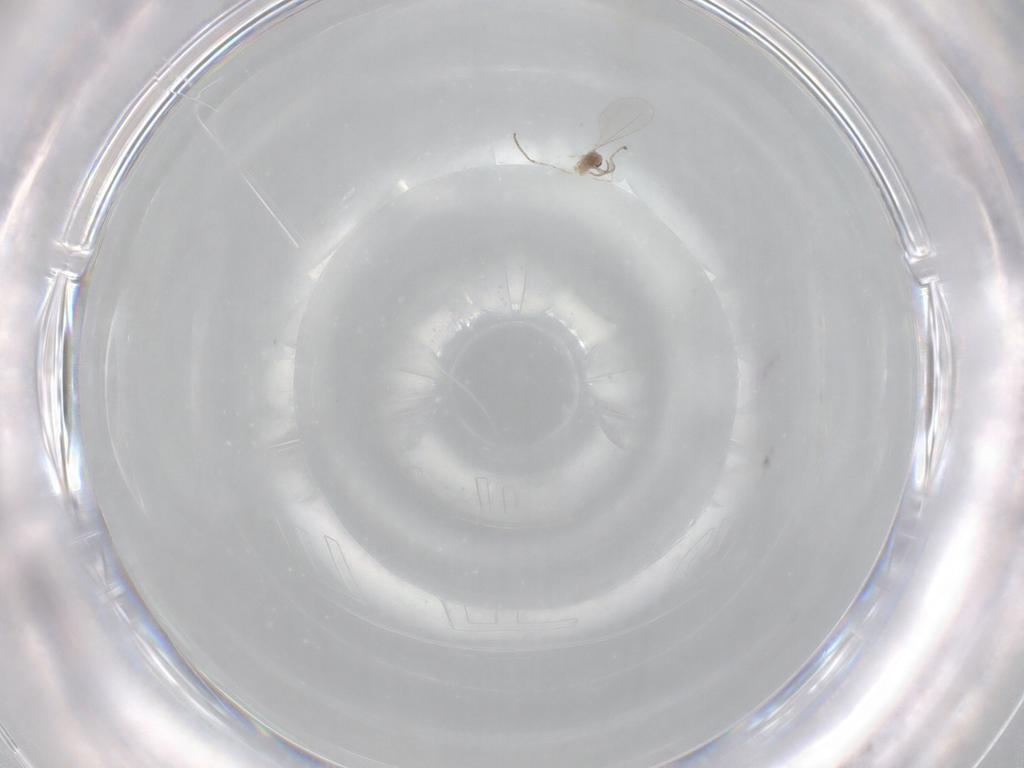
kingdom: Animalia
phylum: Arthropoda
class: Insecta
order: Diptera
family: Cecidomyiidae
